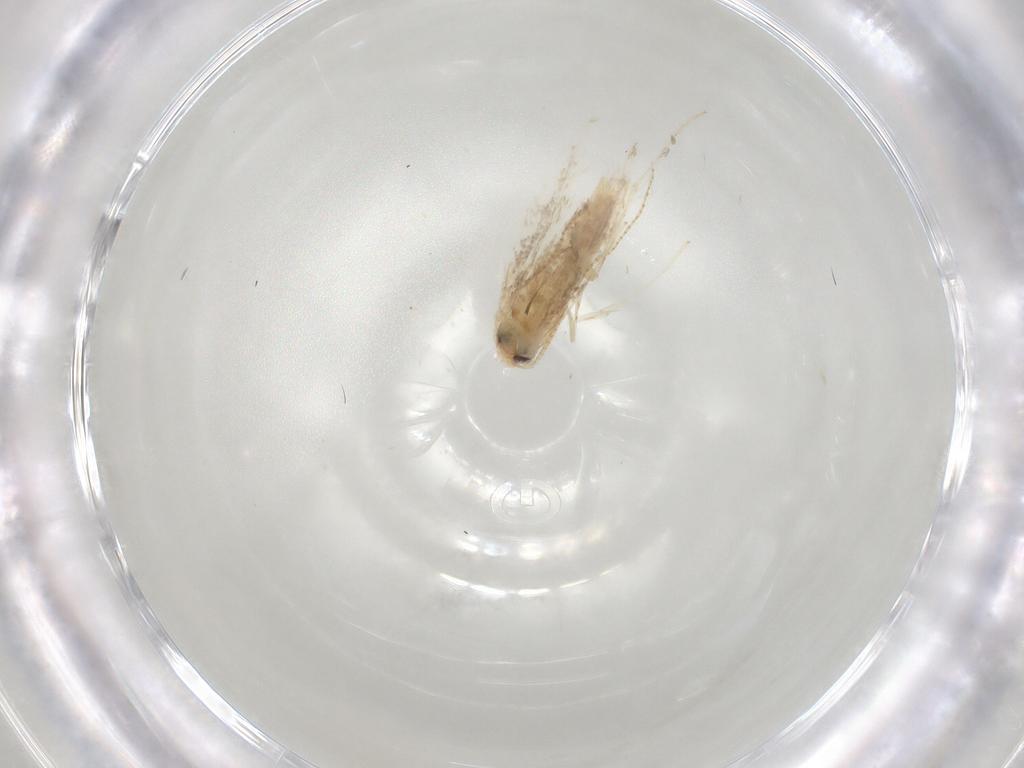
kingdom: Animalia
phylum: Arthropoda
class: Insecta
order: Lepidoptera
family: Gracillariidae
